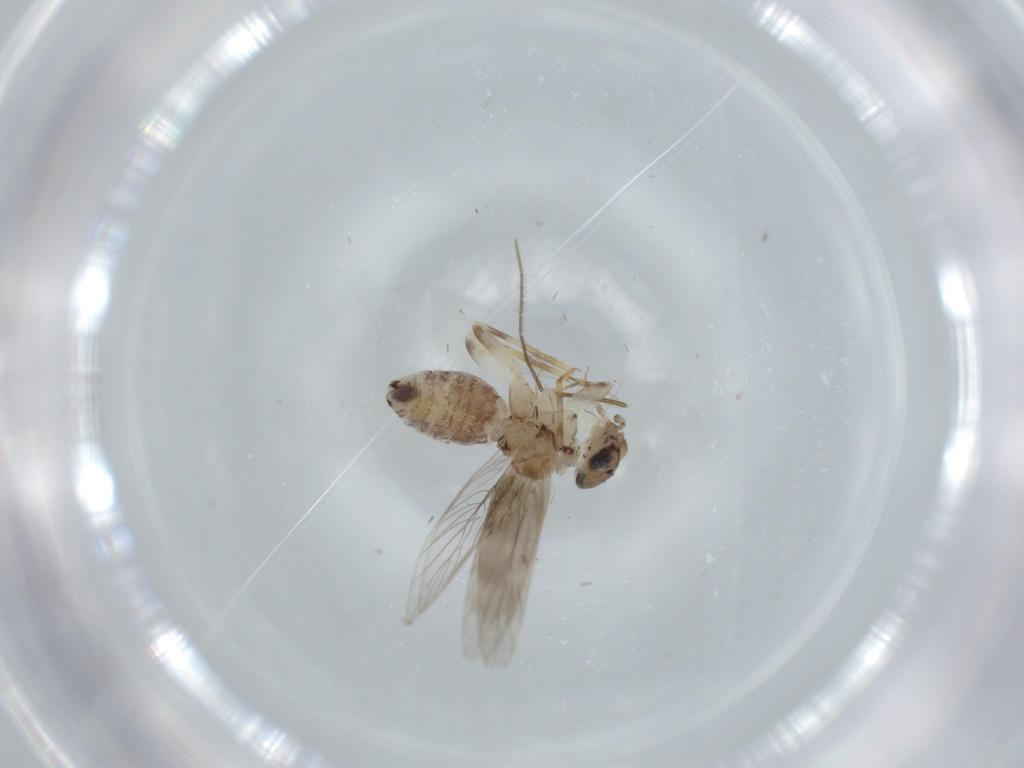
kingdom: Animalia
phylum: Arthropoda
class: Insecta
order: Psocodea
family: Lepidopsocidae
